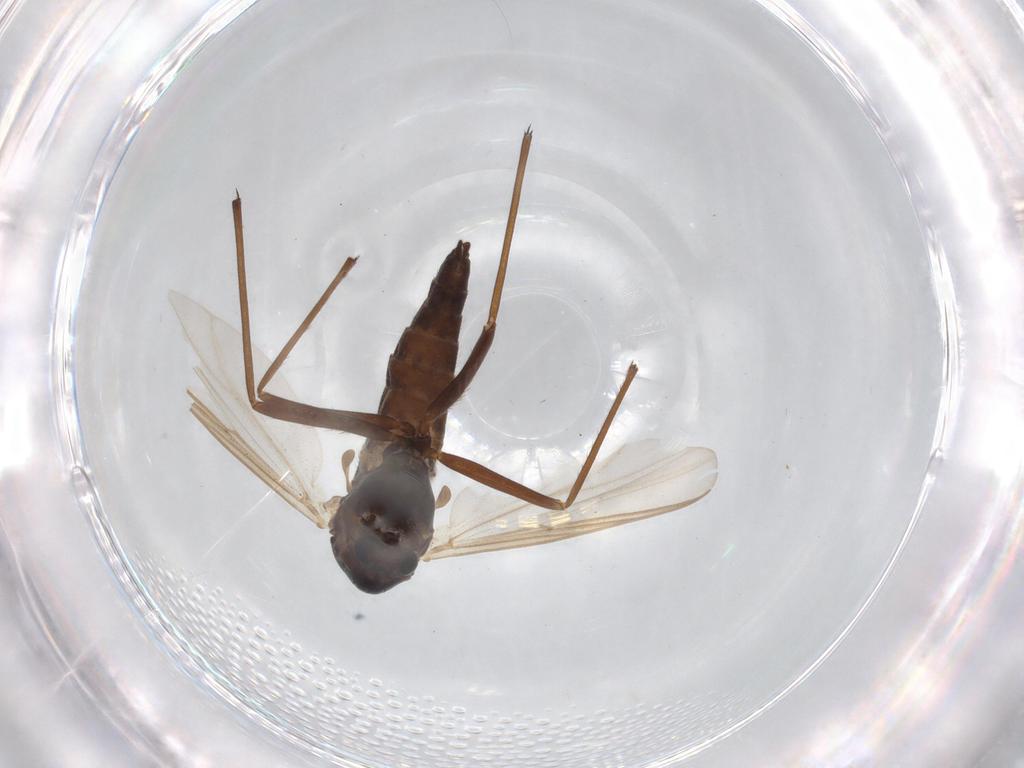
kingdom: Animalia
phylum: Arthropoda
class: Insecta
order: Diptera
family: Chironomidae
